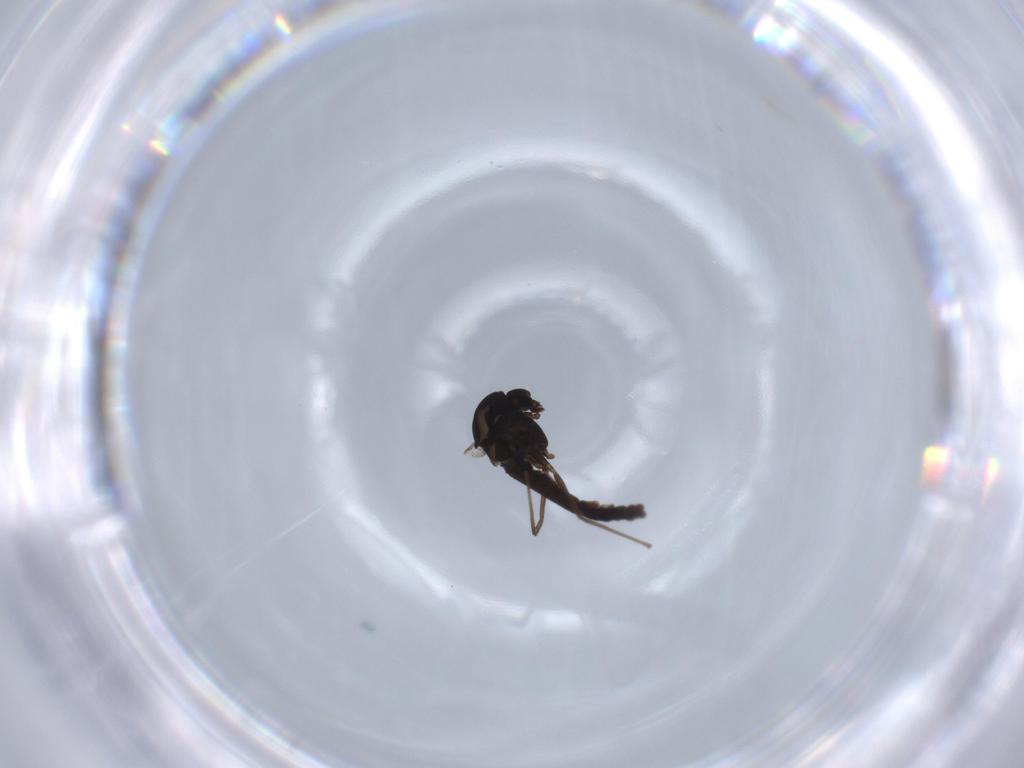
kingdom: Animalia
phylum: Arthropoda
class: Insecta
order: Diptera
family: Chironomidae
